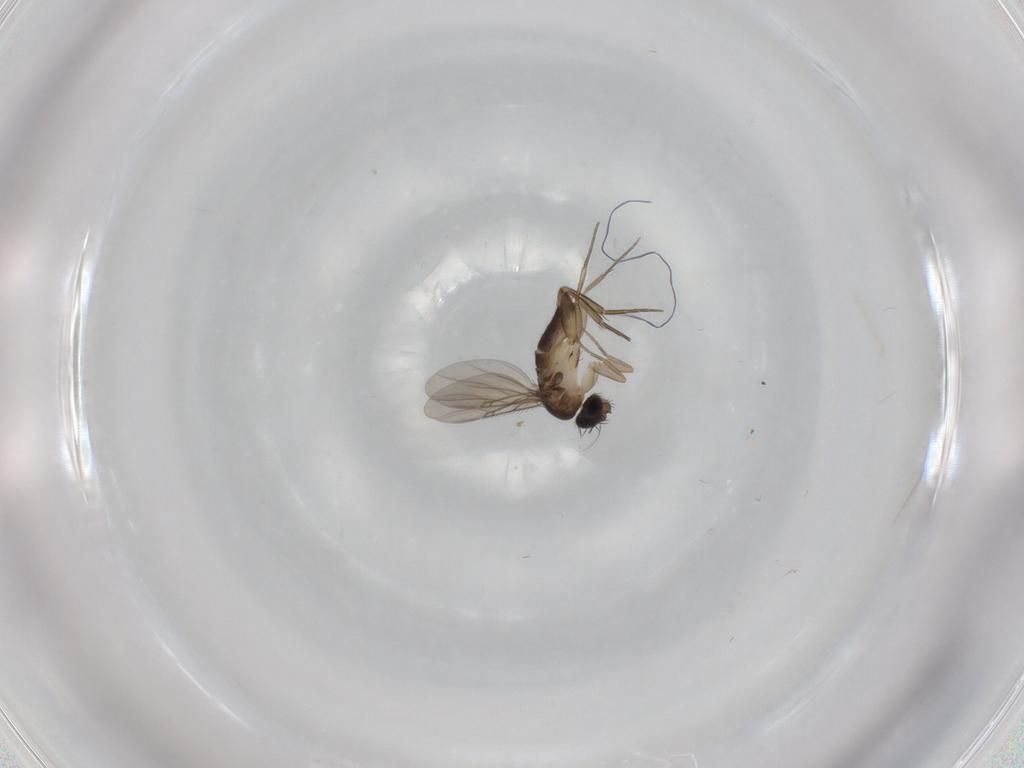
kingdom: Animalia
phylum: Arthropoda
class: Insecta
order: Diptera
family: Phoridae
